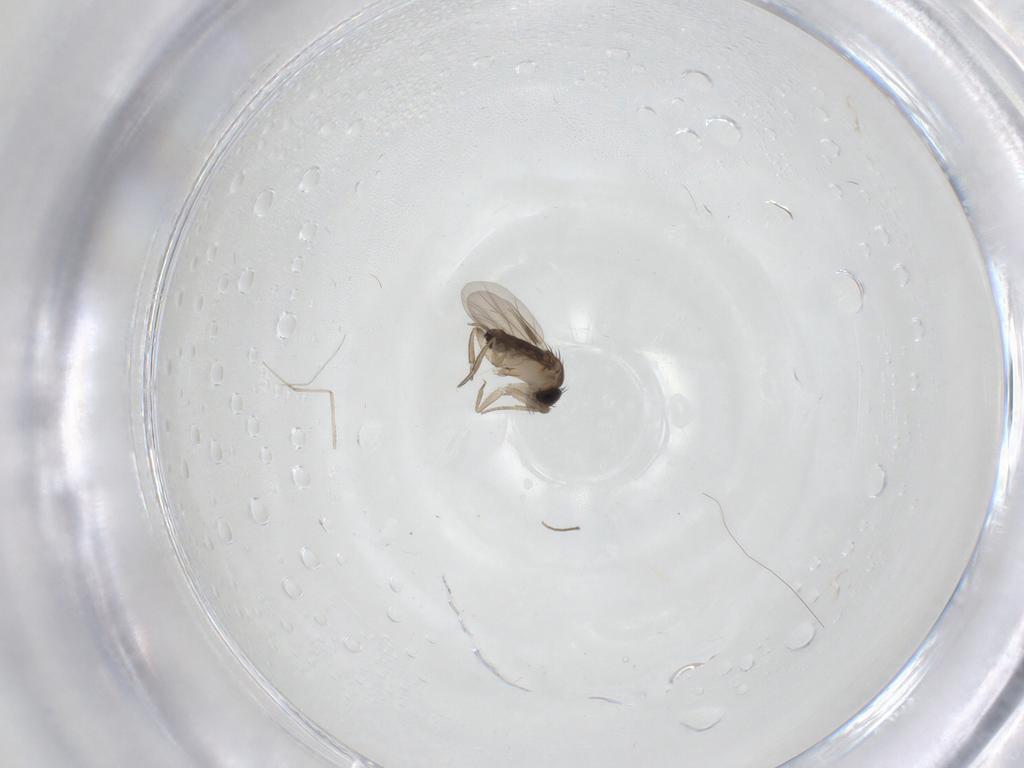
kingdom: Animalia
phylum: Arthropoda
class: Insecta
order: Diptera
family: Phoridae
